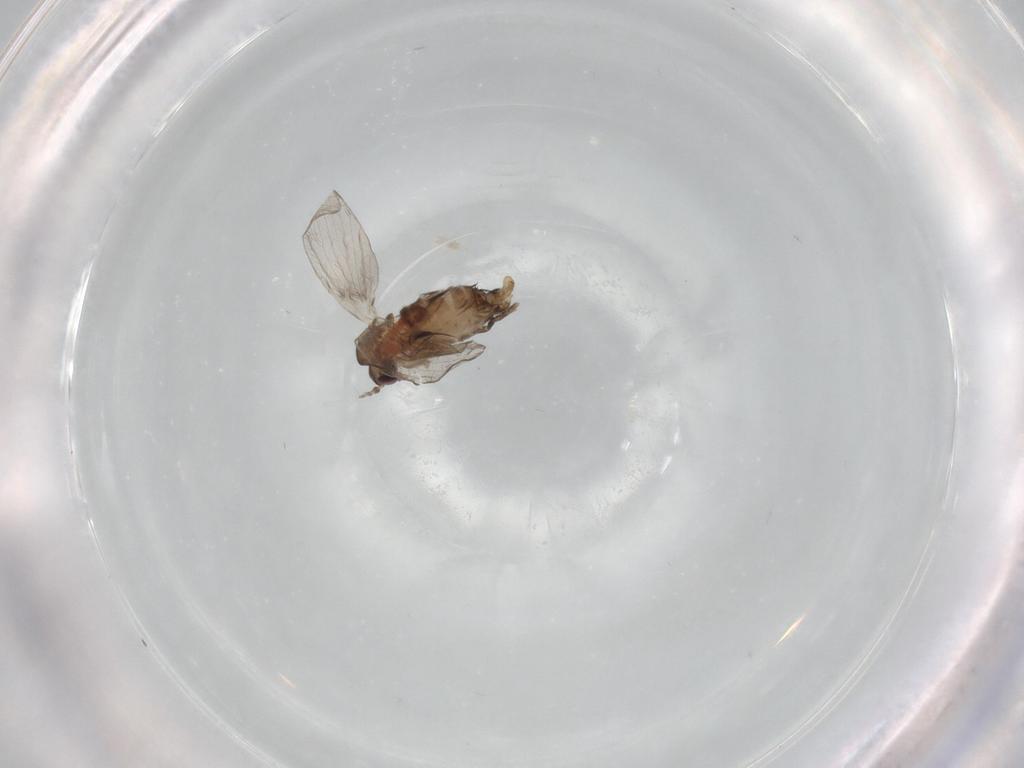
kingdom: Animalia
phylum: Arthropoda
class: Insecta
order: Diptera
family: Psychodidae
